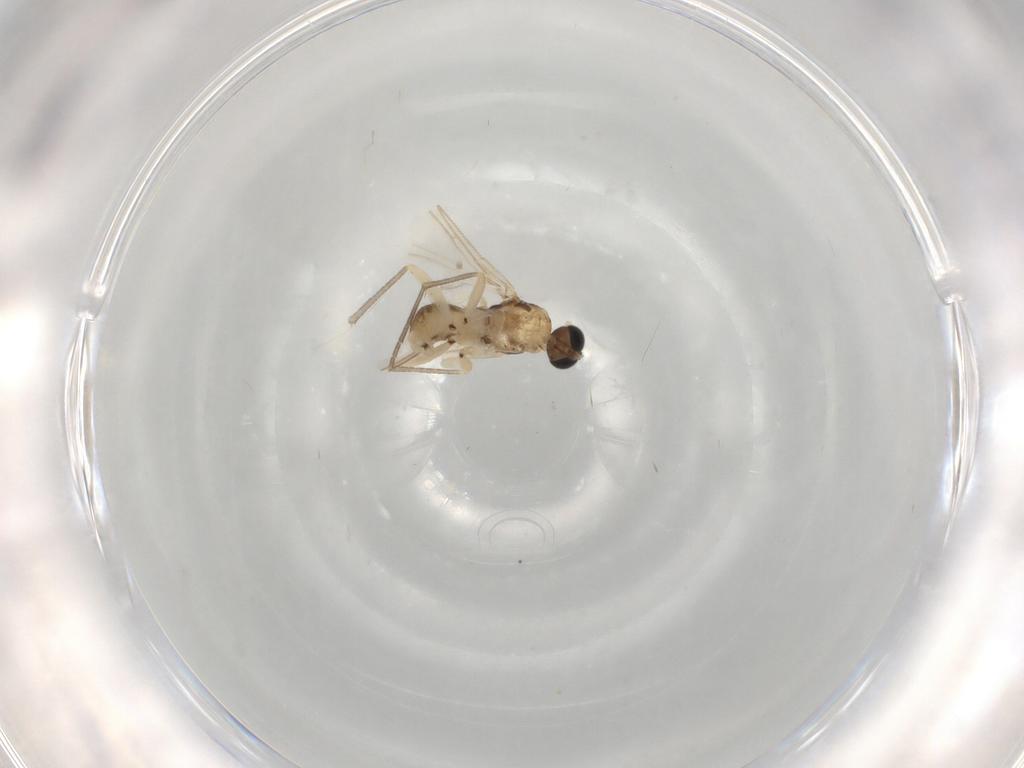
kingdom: Animalia
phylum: Arthropoda
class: Insecta
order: Diptera
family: Sciaridae
